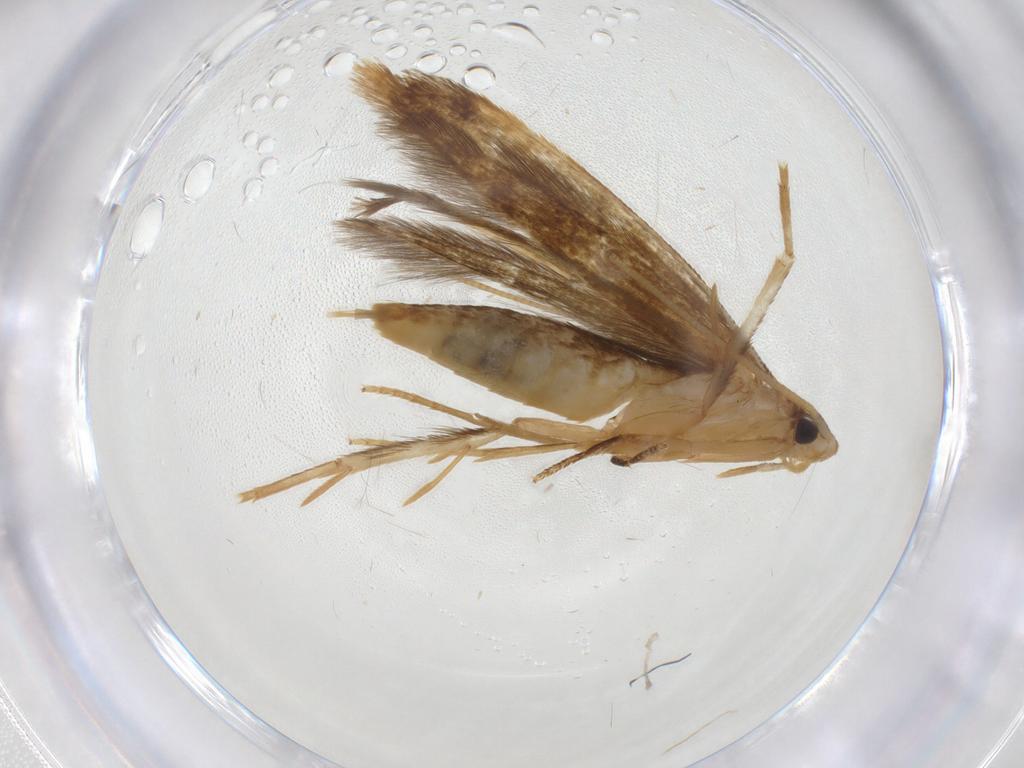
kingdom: Animalia
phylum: Arthropoda
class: Insecta
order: Lepidoptera
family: Tineidae
